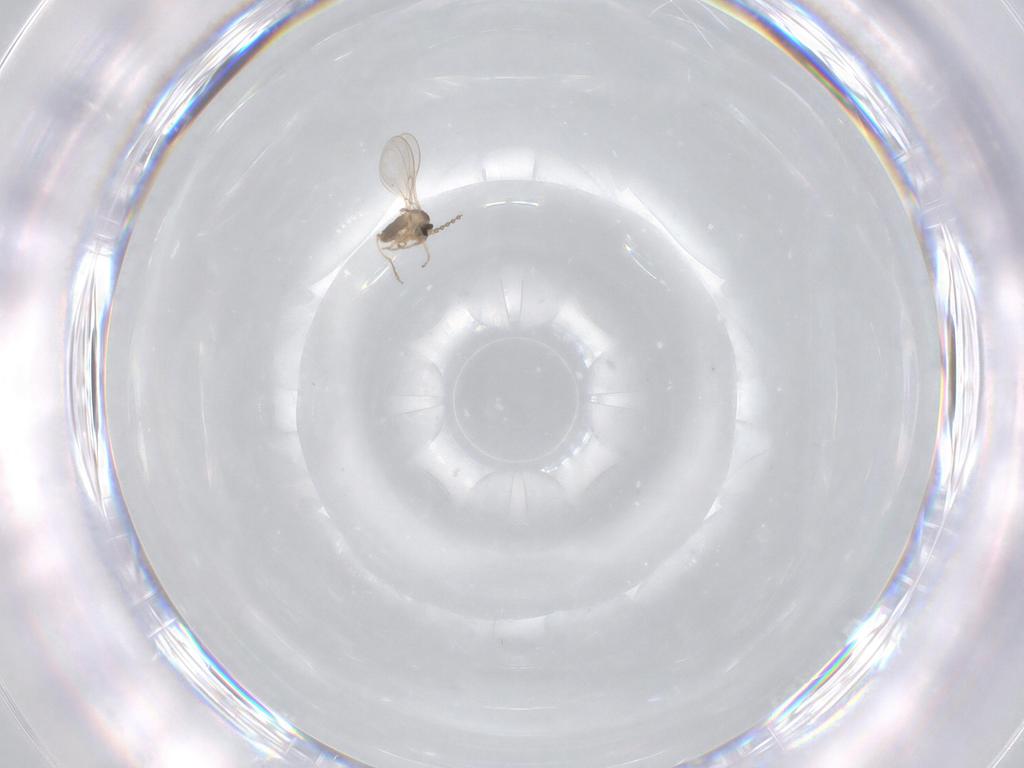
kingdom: Animalia
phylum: Arthropoda
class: Insecta
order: Diptera
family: Cecidomyiidae
